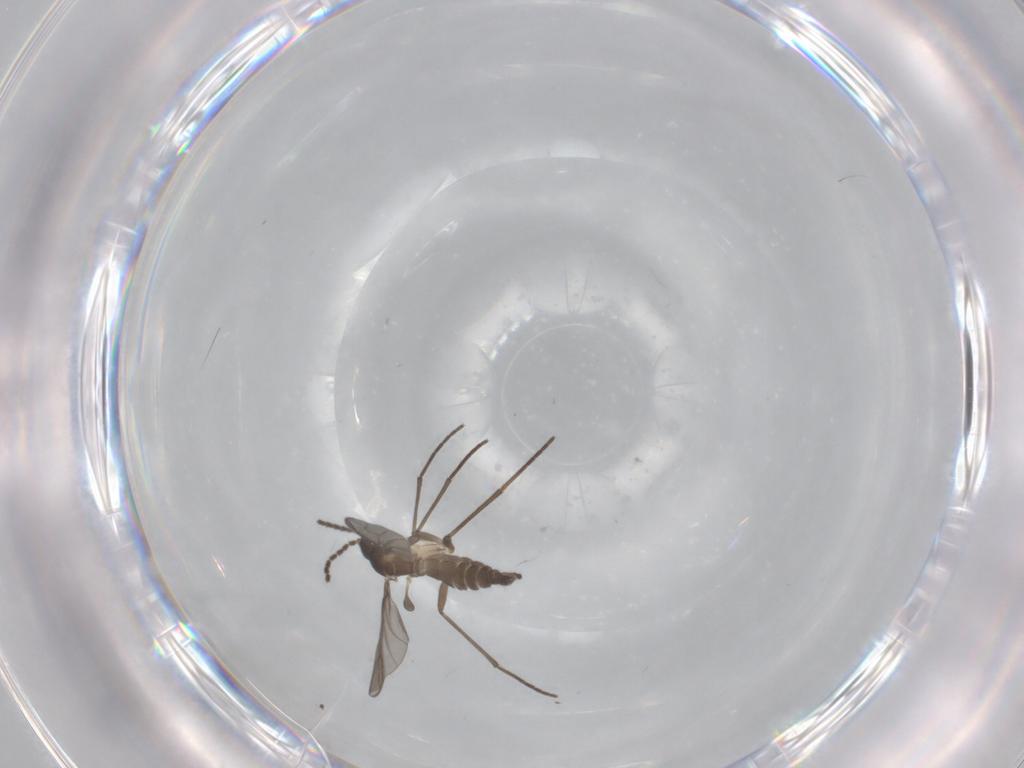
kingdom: Animalia
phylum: Arthropoda
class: Insecta
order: Diptera
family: Sciaridae
